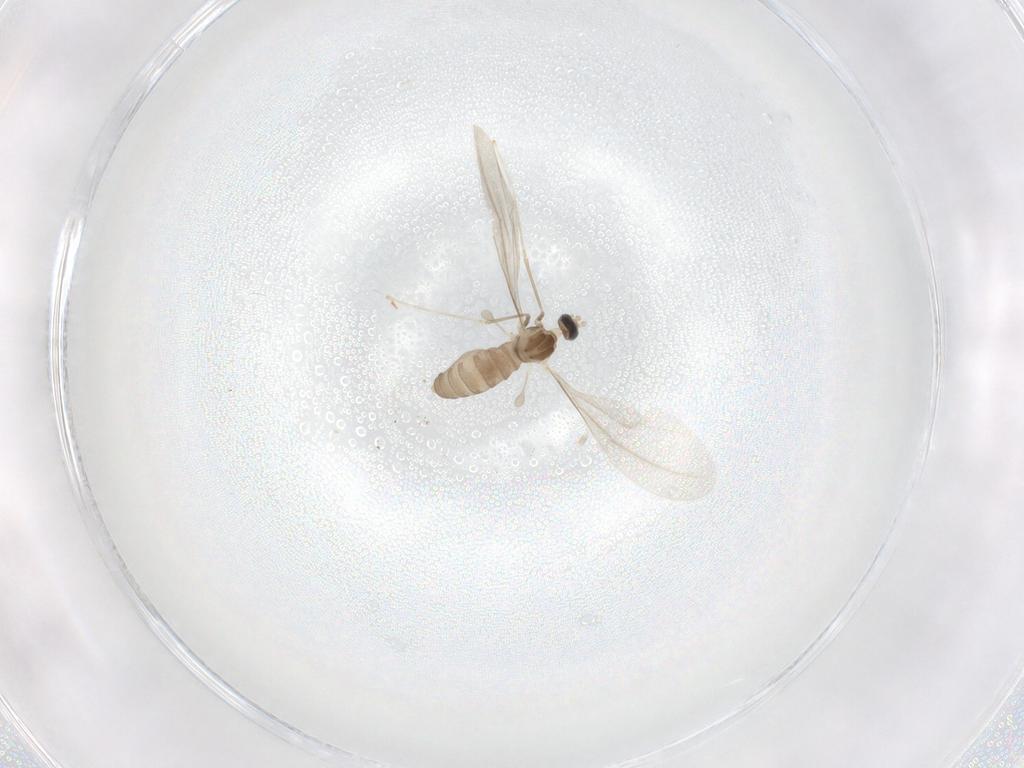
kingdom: Animalia
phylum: Arthropoda
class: Insecta
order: Diptera
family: Cecidomyiidae
